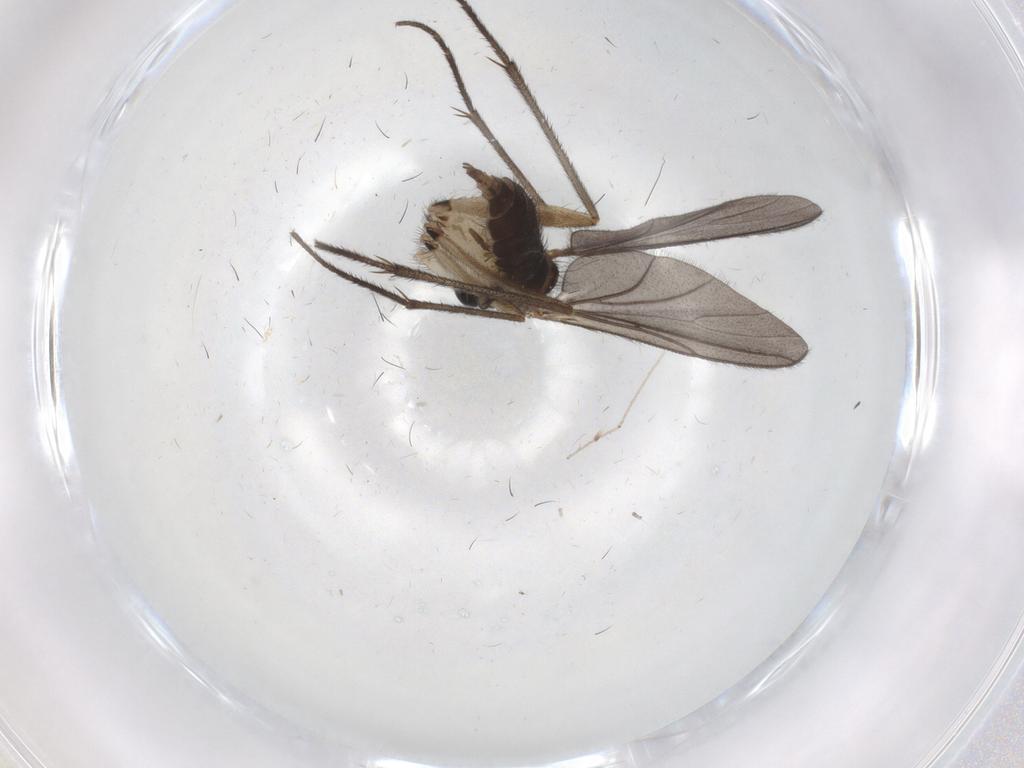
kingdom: Animalia
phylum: Arthropoda
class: Insecta
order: Diptera
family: Sciaridae
